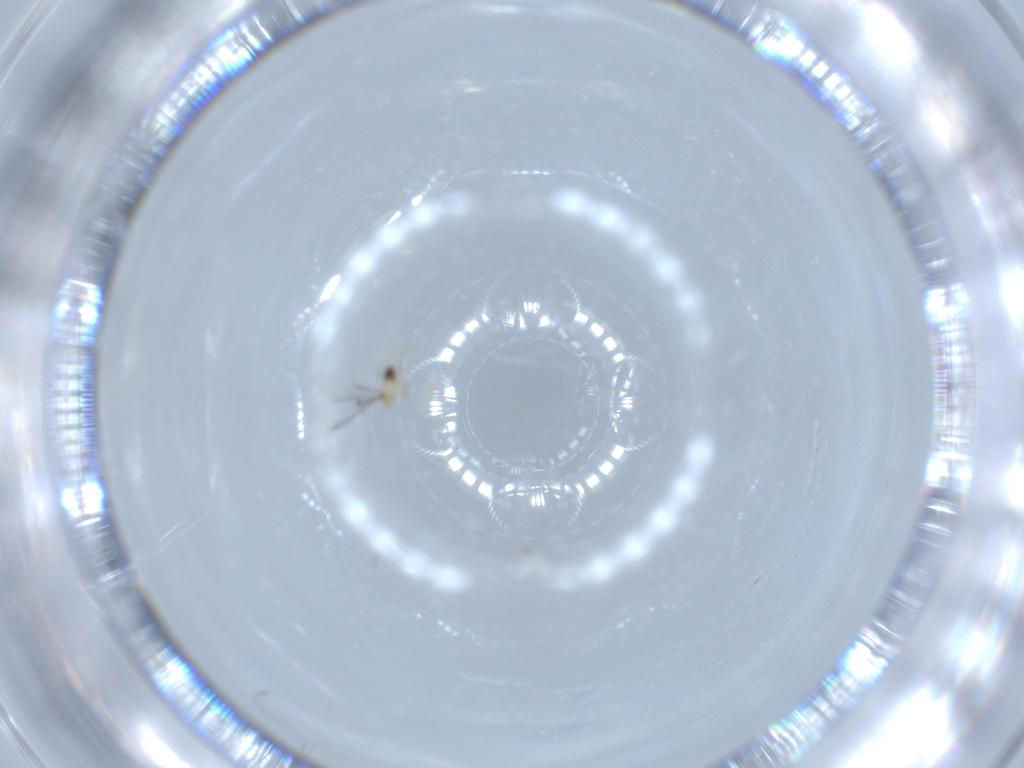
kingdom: Animalia
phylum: Arthropoda
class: Insecta
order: Hymenoptera
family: Mymaridae
